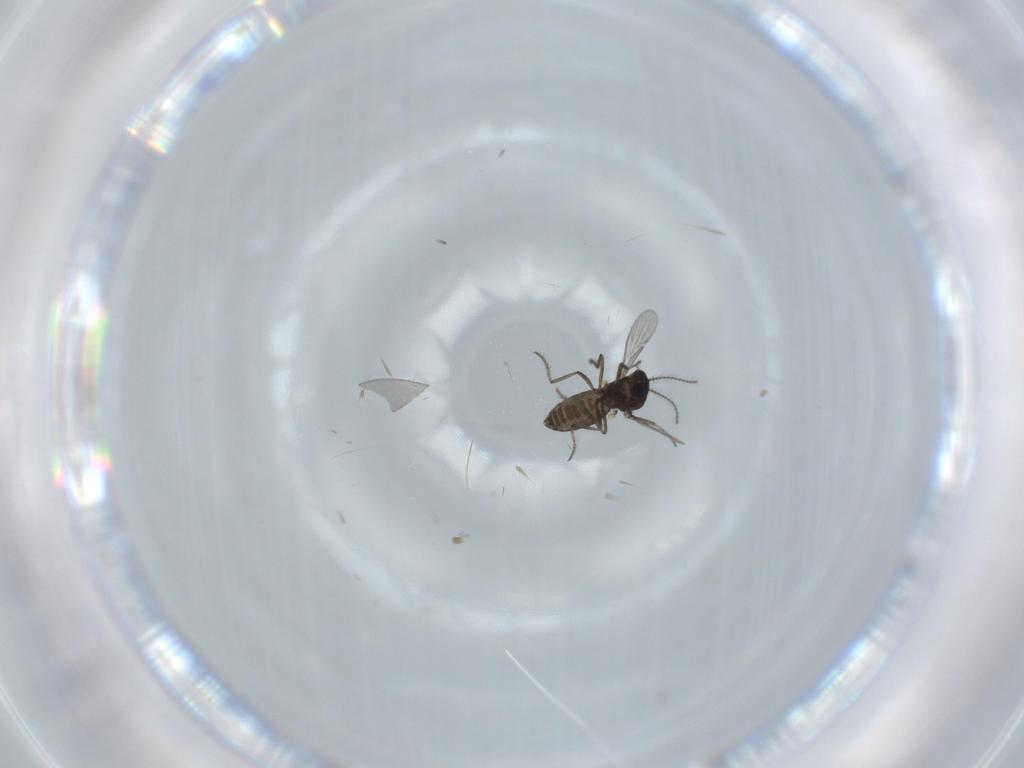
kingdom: Animalia
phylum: Arthropoda
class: Insecta
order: Diptera
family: Ceratopogonidae
